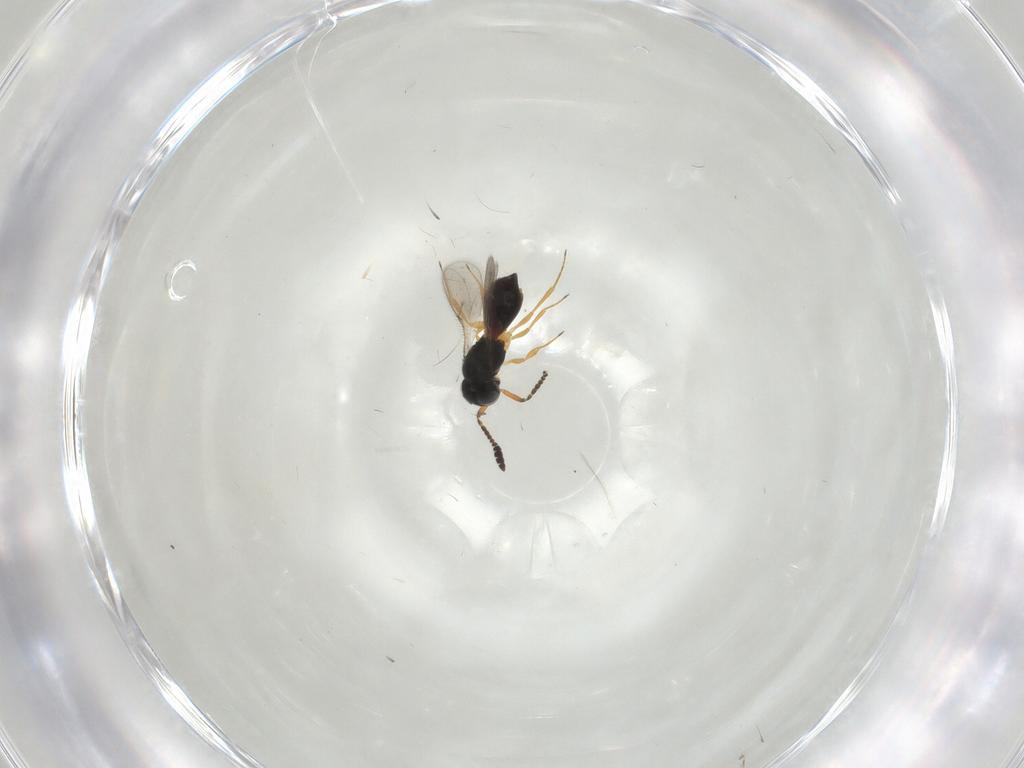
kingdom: Animalia
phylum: Arthropoda
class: Insecta
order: Hymenoptera
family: Scelionidae
